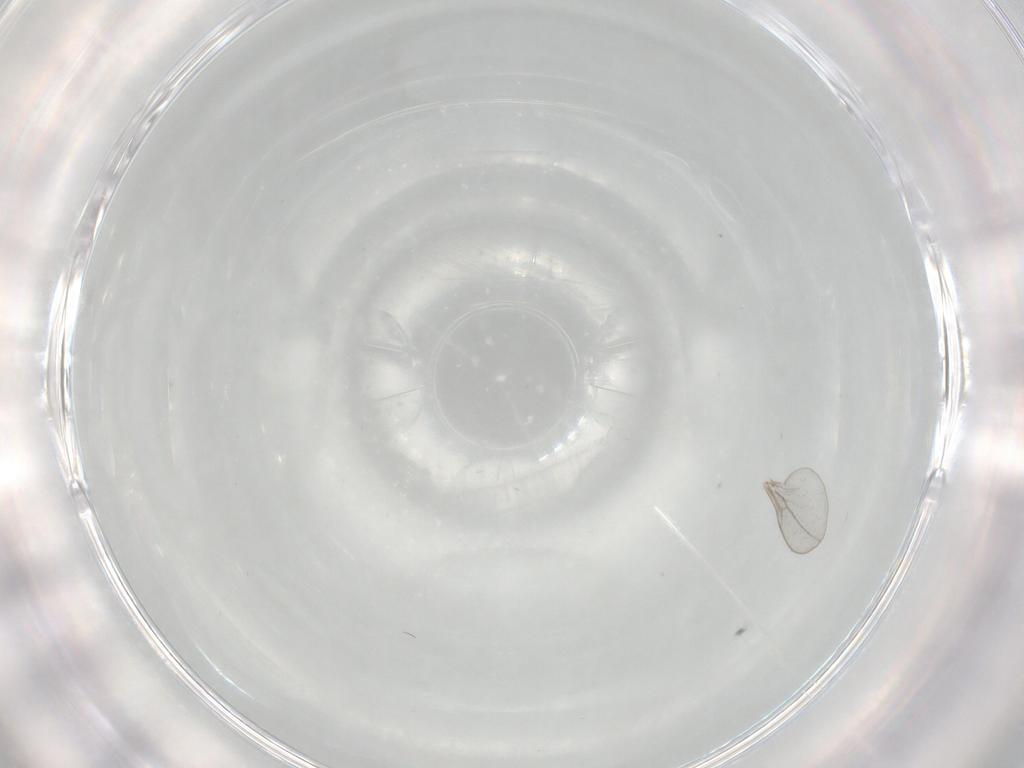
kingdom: Animalia
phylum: Arthropoda
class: Insecta
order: Diptera
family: Cecidomyiidae
